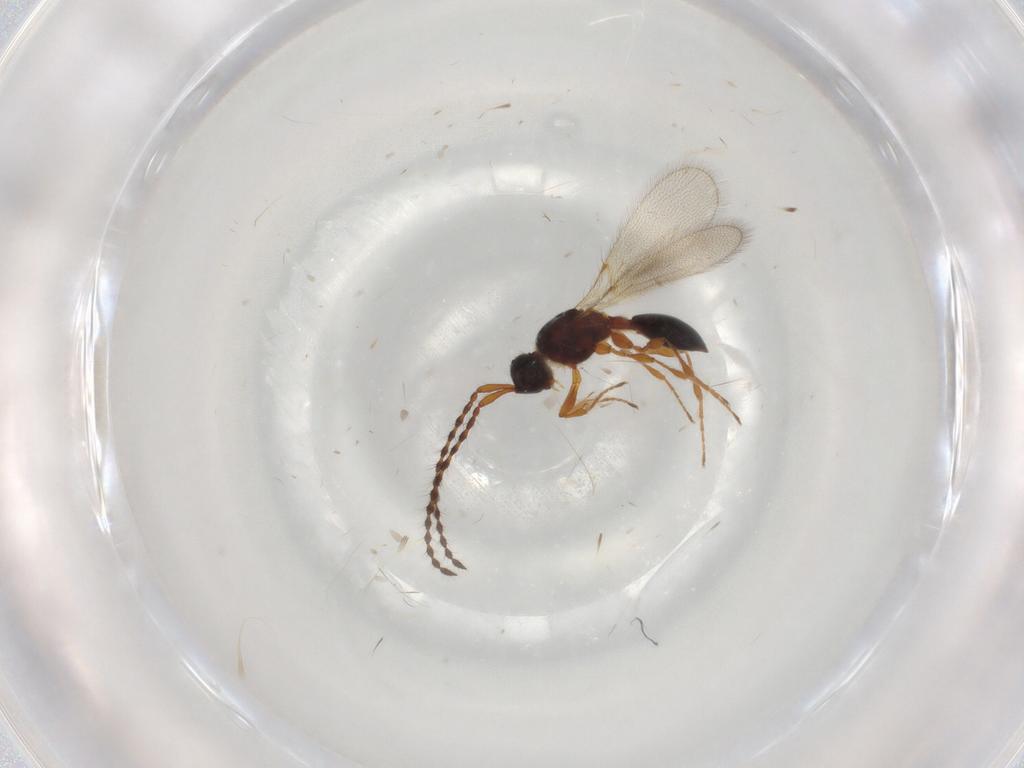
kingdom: Animalia
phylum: Arthropoda
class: Insecta
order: Hymenoptera
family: Diapriidae
